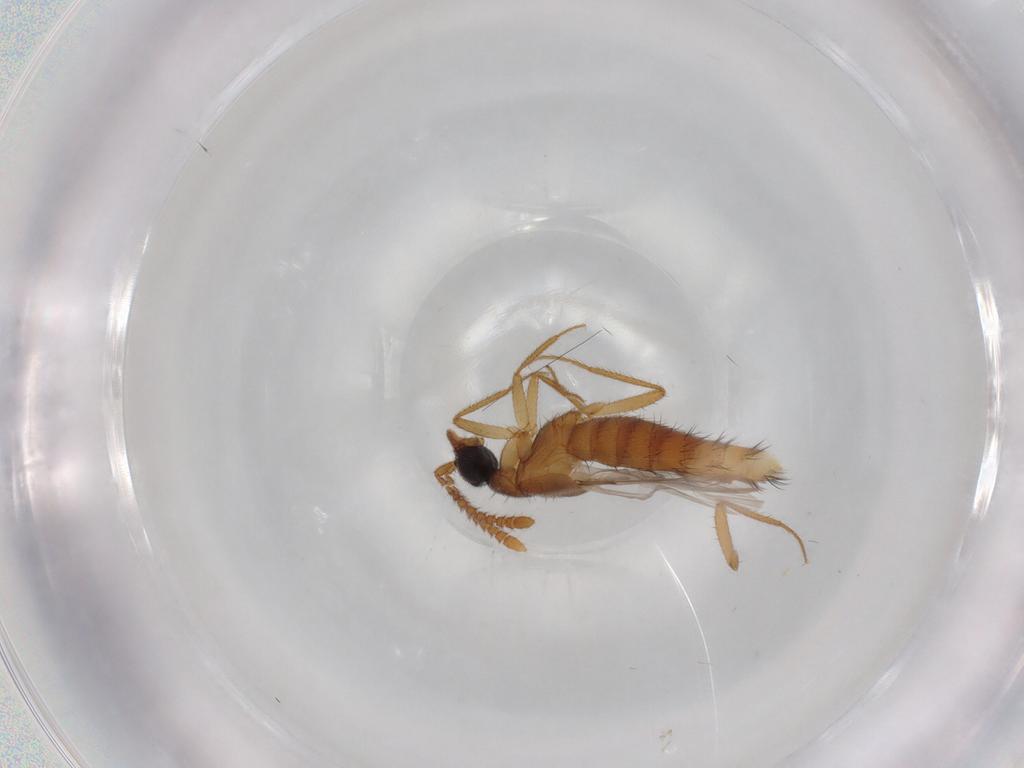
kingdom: Animalia
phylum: Arthropoda
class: Insecta
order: Coleoptera
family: Staphylinidae
